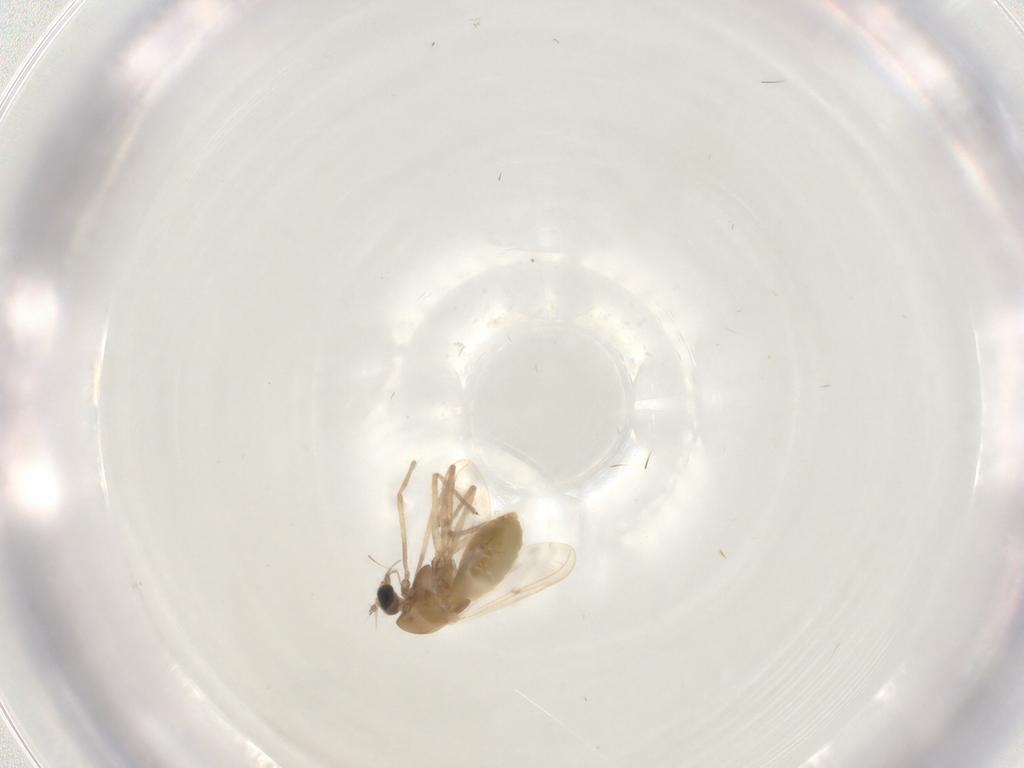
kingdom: Animalia
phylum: Arthropoda
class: Insecta
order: Diptera
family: Chironomidae
